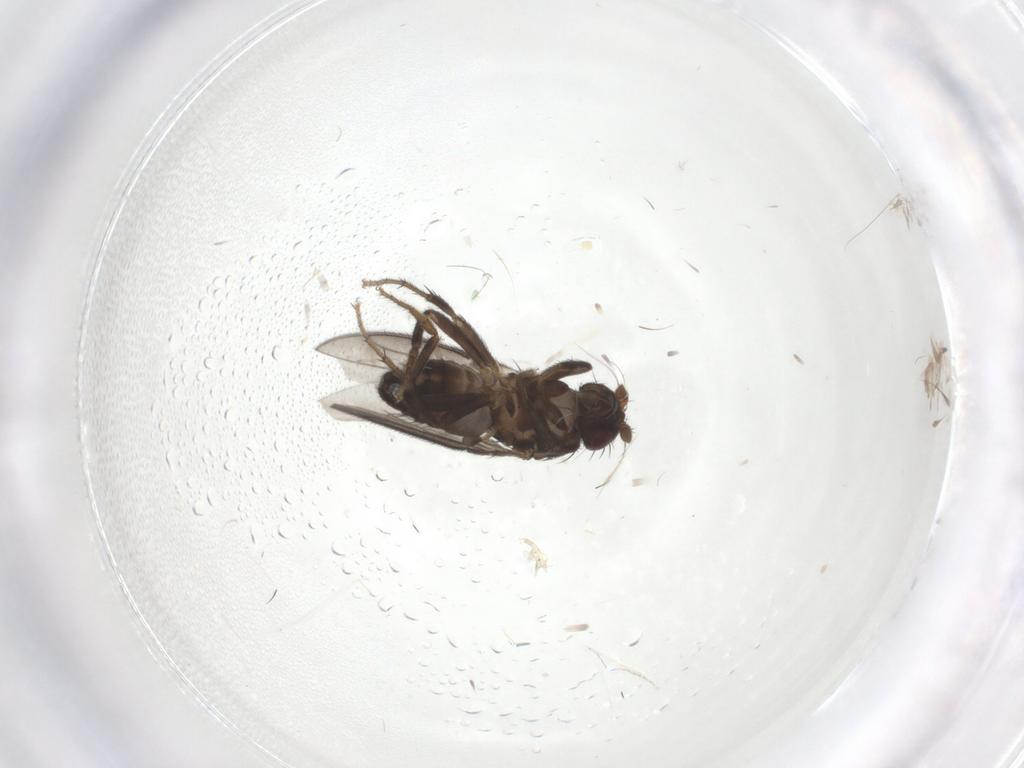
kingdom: Animalia
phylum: Arthropoda
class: Insecta
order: Diptera
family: Sphaeroceridae
